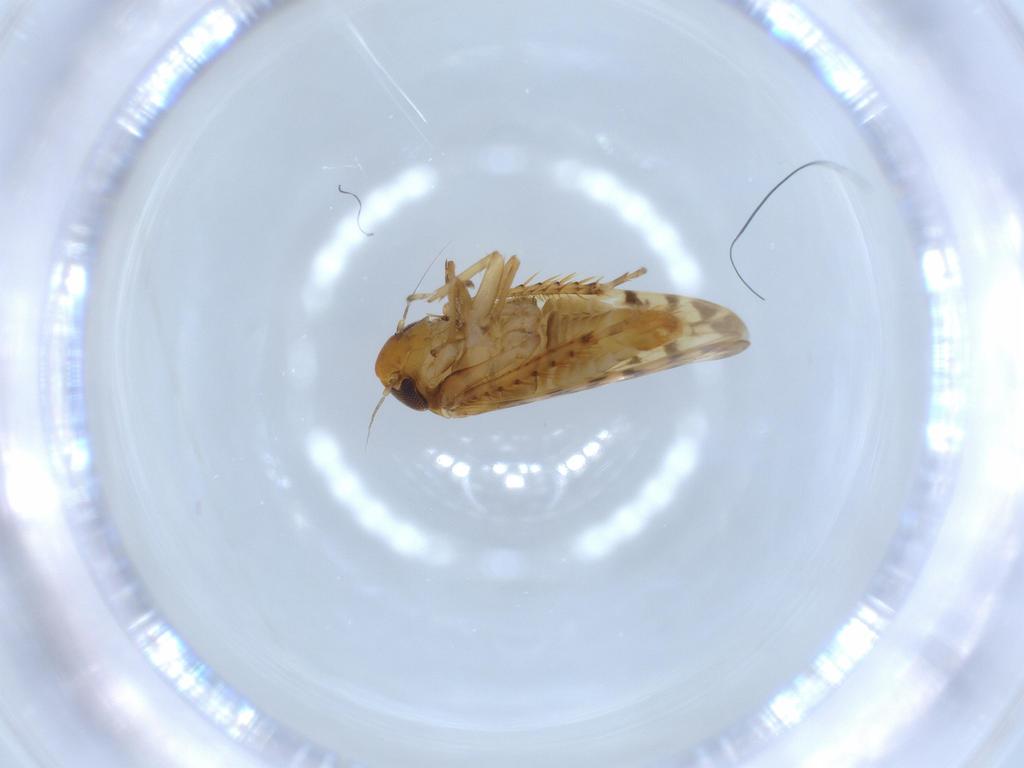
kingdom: Animalia
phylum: Arthropoda
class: Insecta
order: Hemiptera
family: Cicadellidae
